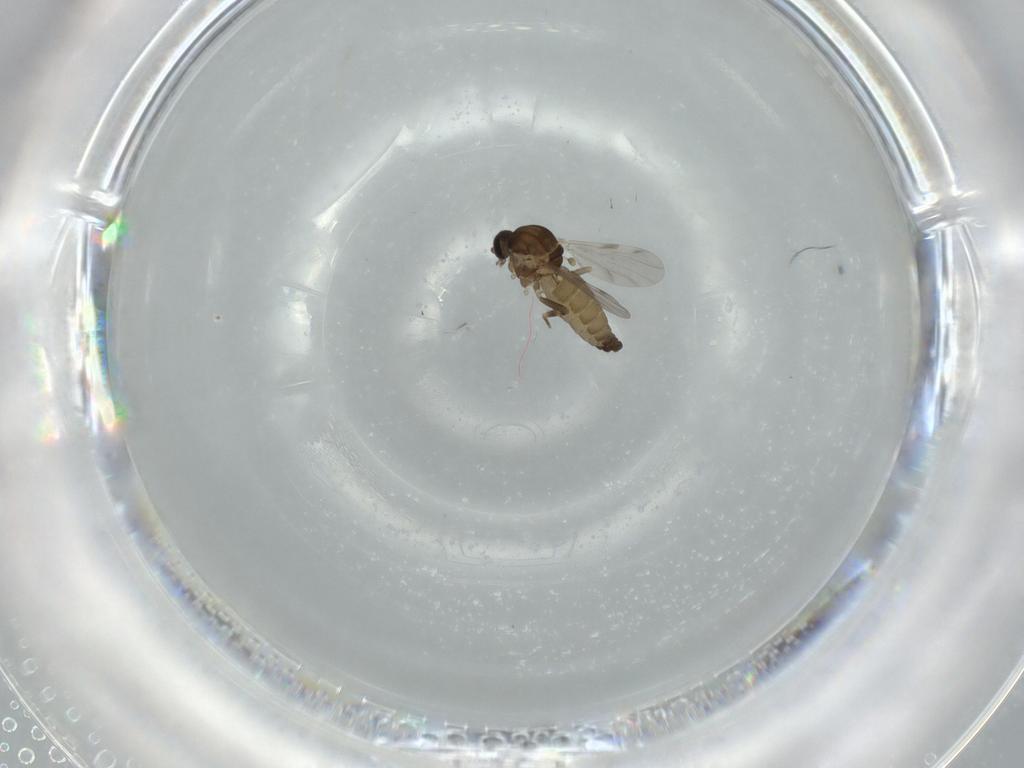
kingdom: Animalia
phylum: Arthropoda
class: Insecta
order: Diptera
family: Ceratopogonidae
